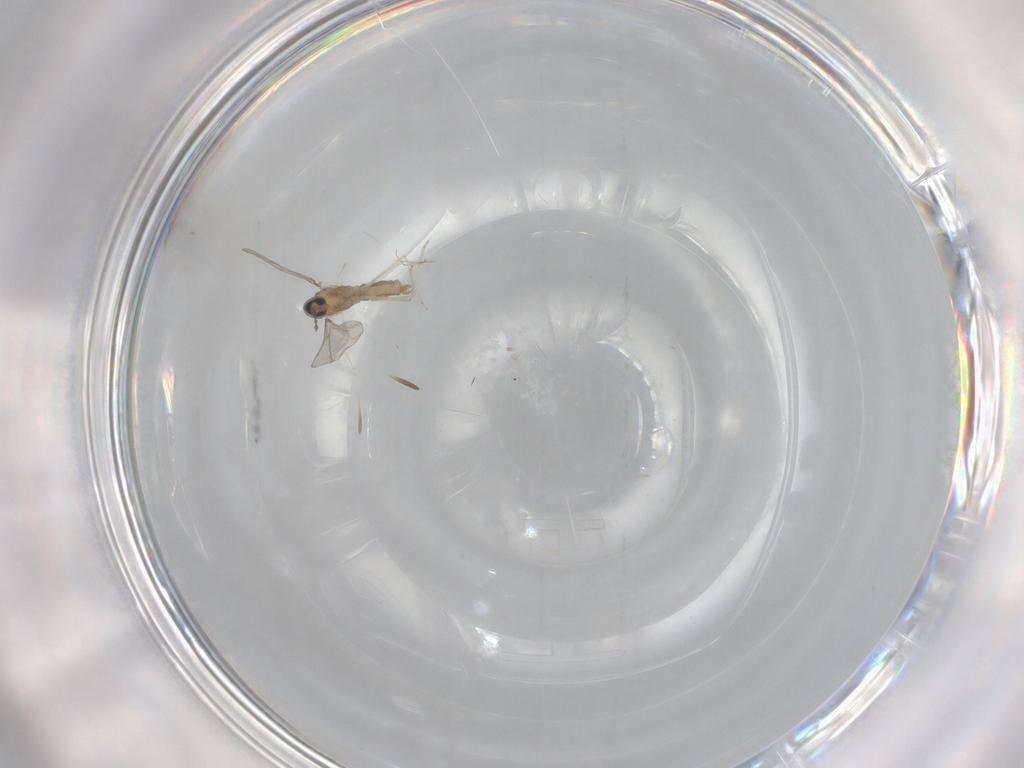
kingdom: Animalia
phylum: Arthropoda
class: Insecta
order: Diptera
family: Cecidomyiidae
